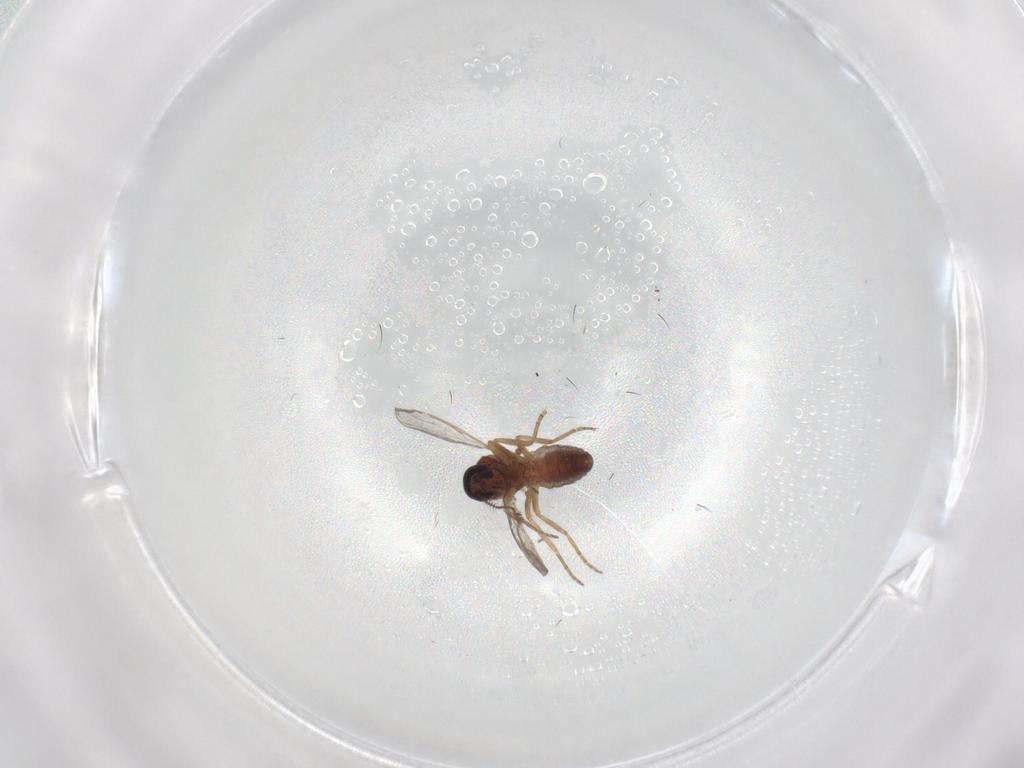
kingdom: Animalia
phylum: Arthropoda
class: Insecta
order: Diptera
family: Ceratopogonidae
